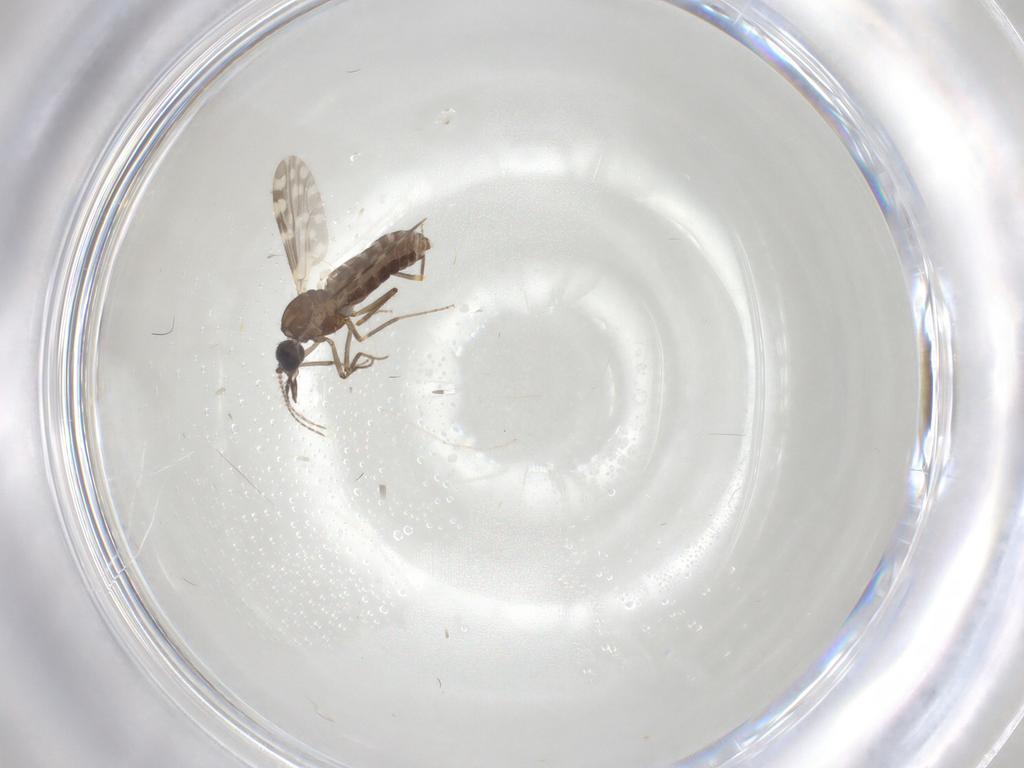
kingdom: Animalia
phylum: Arthropoda
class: Insecta
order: Diptera
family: Ceratopogonidae
